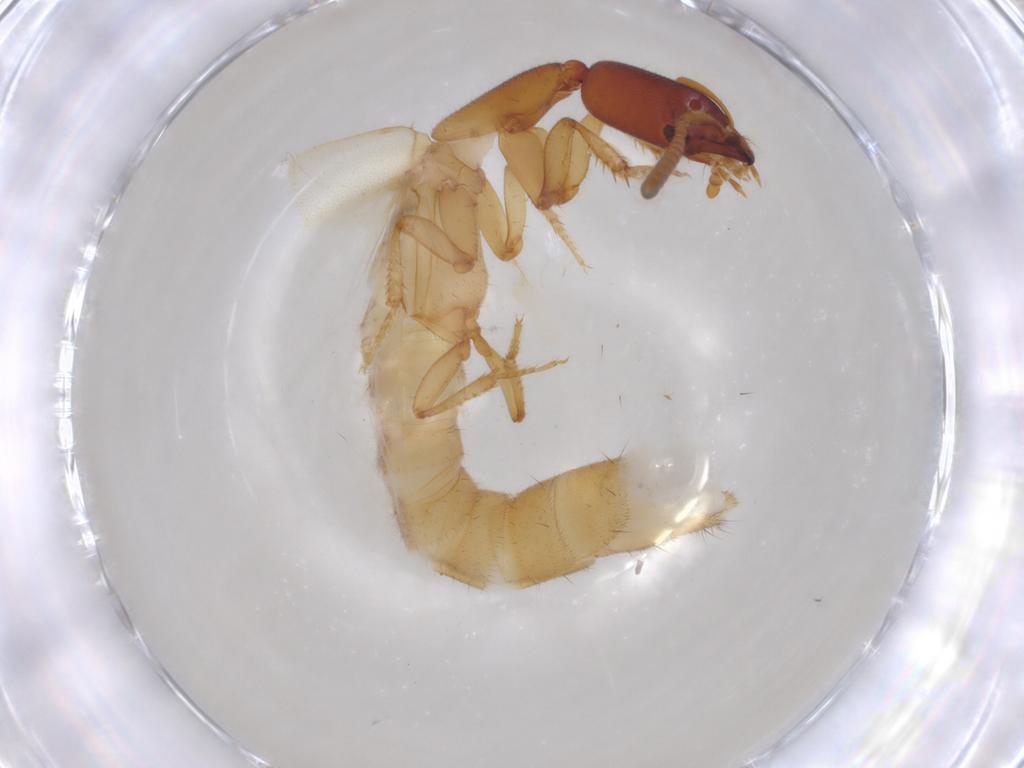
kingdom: Animalia
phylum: Arthropoda
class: Insecta
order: Coleoptera
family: Staphylinidae
